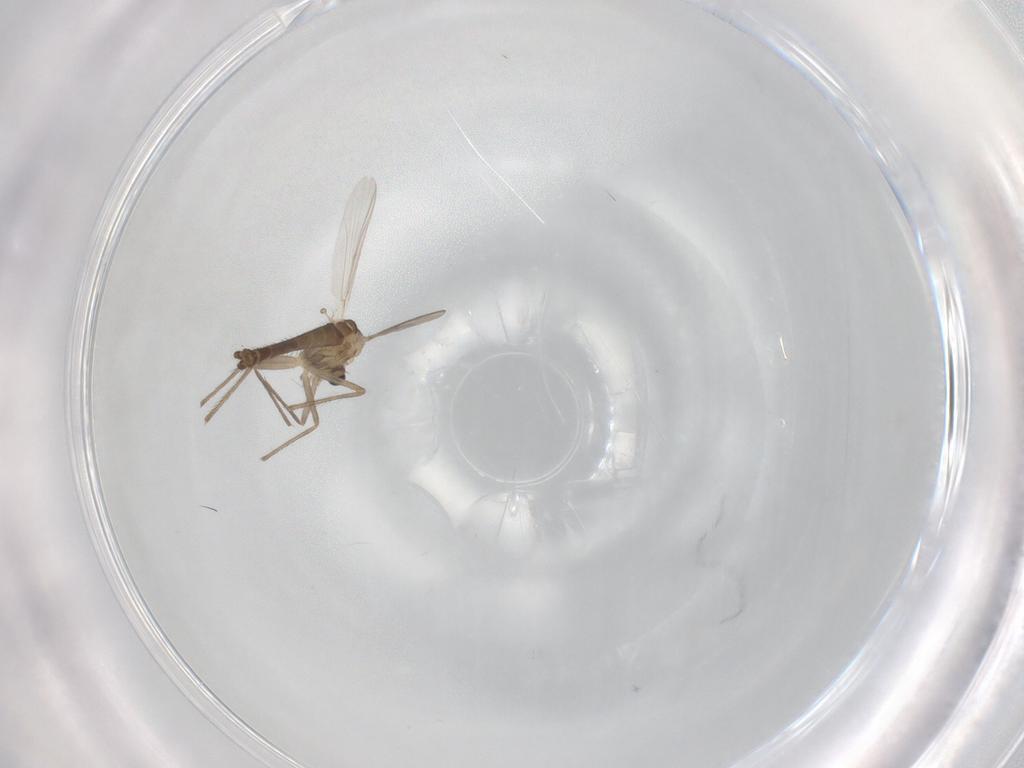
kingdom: Animalia
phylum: Arthropoda
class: Insecta
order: Diptera
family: Chironomidae
